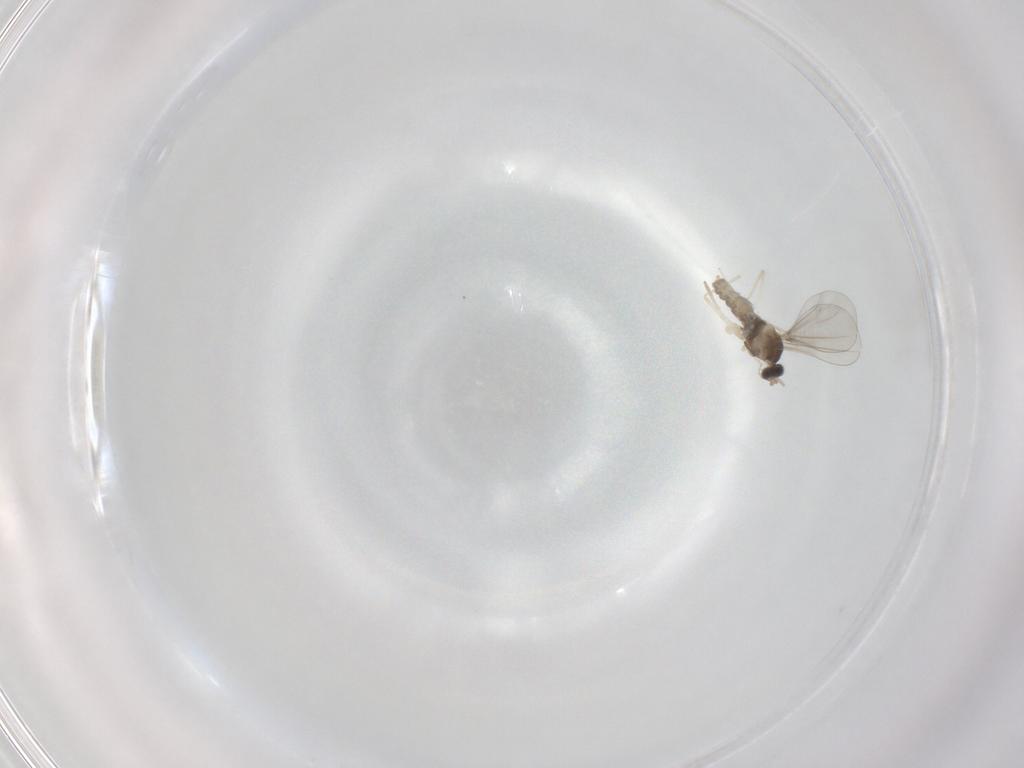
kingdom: Animalia
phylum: Arthropoda
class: Insecta
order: Diptera
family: Cecidomyiidae
